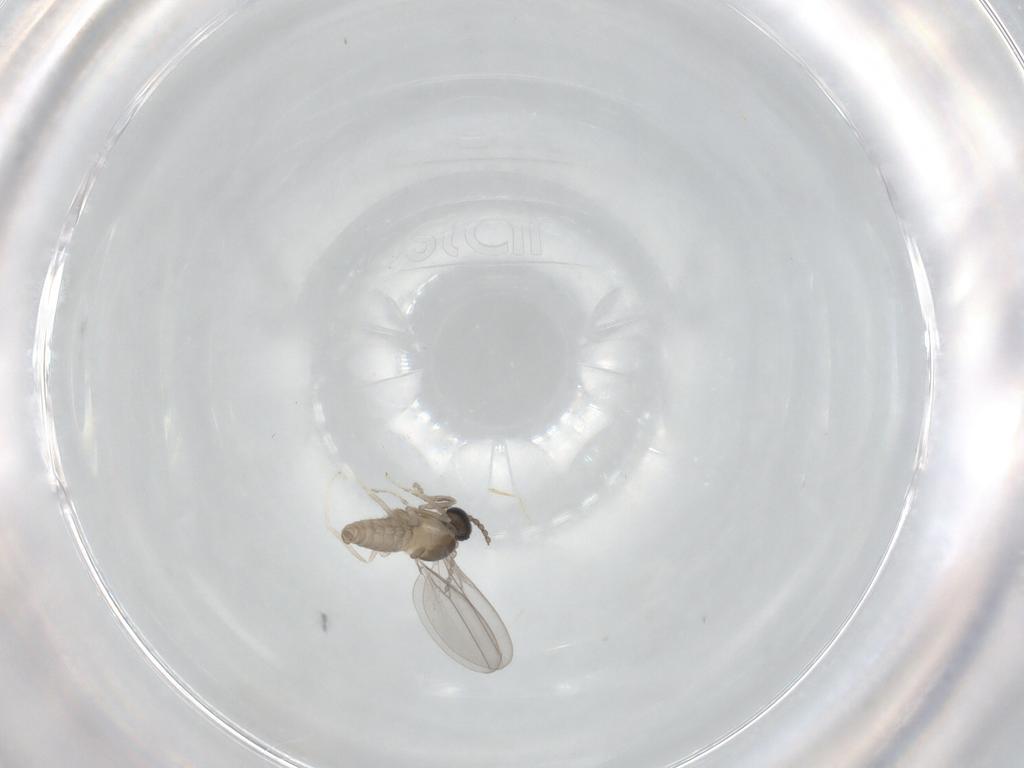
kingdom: Animalia
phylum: Arthropoda
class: Insecta
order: Diptera
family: Cecidomyiidae
